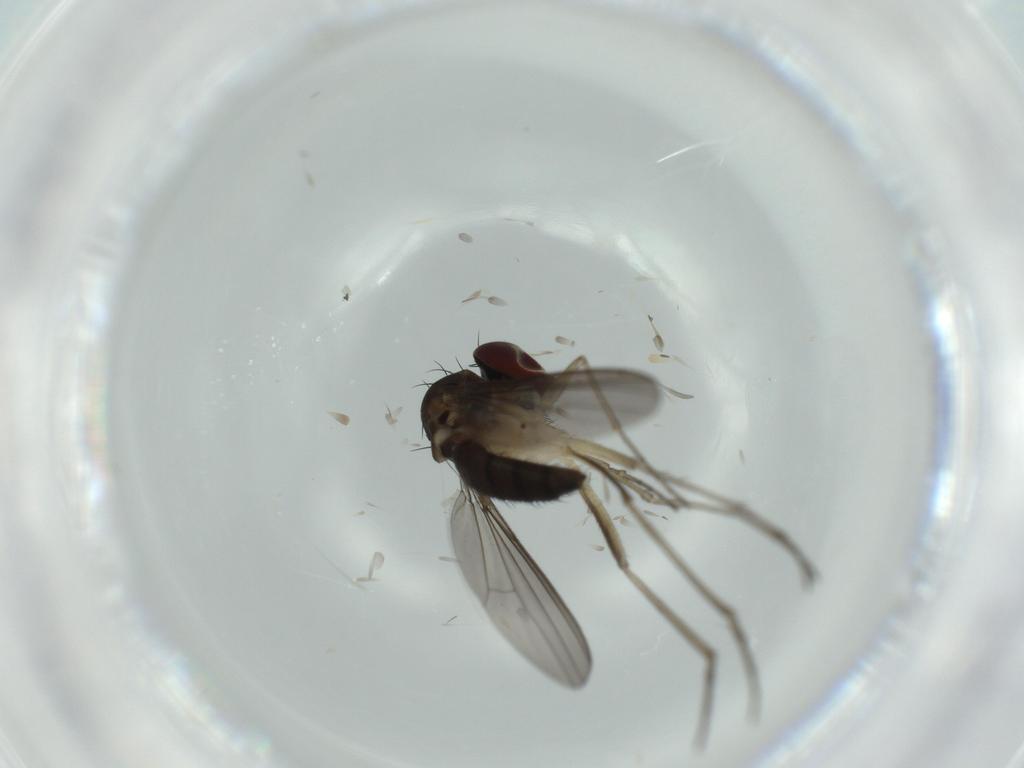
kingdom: Animalia
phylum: Arthropoda
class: Insecta
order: Diptera
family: Dolichopodidae
